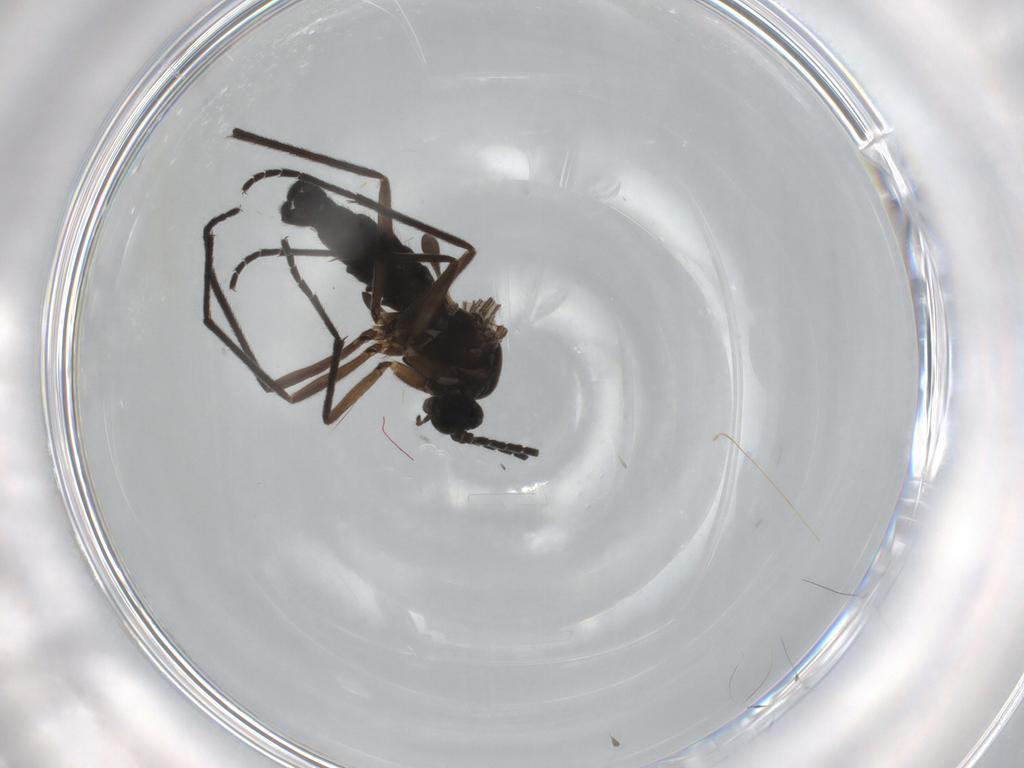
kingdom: Animalia
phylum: Arthropoda
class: Insecta
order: Diptera
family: Sciaridae
